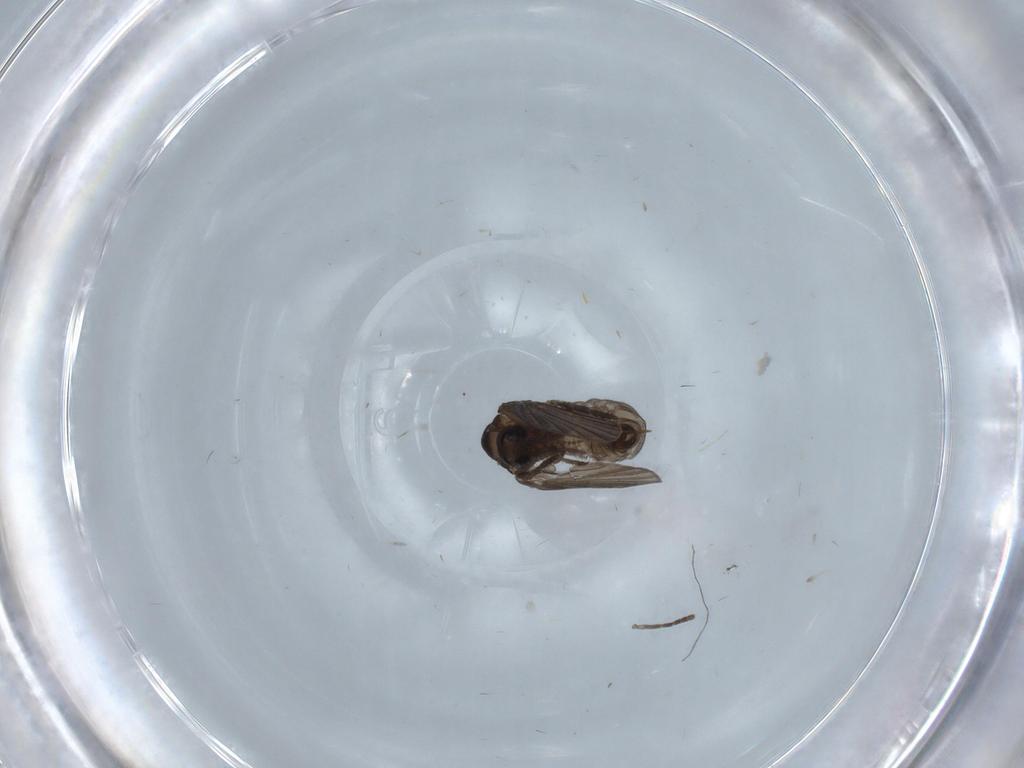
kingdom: Animalia
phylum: Arthropoda
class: Insecta
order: Diptera
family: Psychodidae
